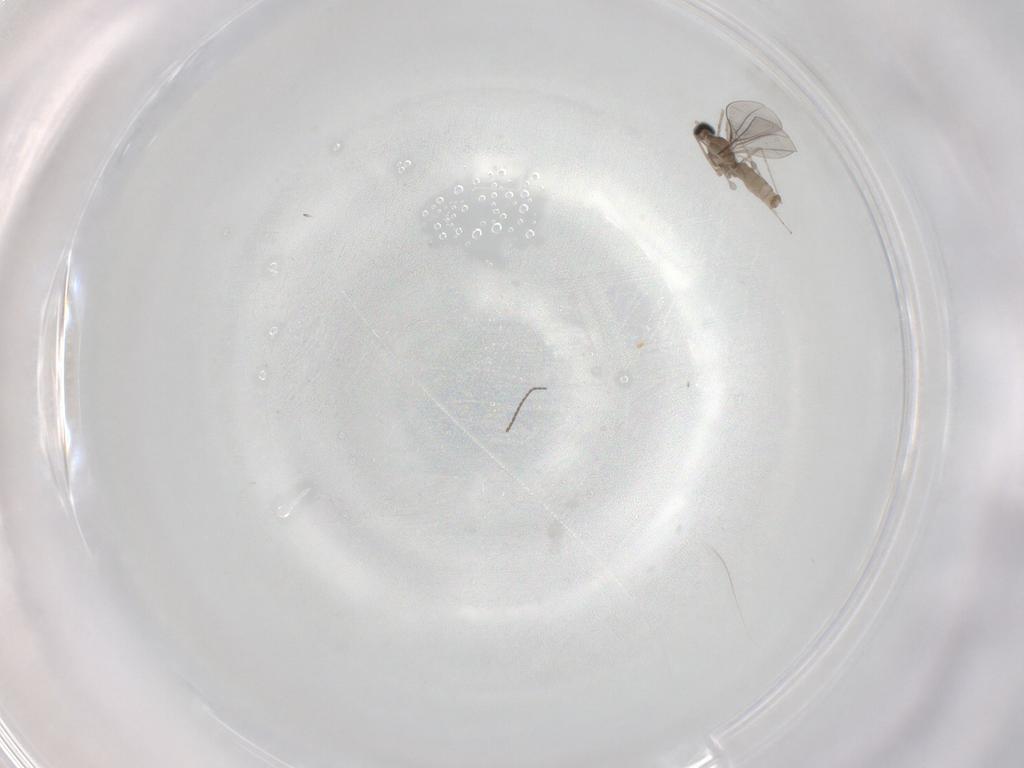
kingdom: Animalia
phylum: Arthropoda
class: Insecta
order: Diptera
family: Cecidomyiidae
